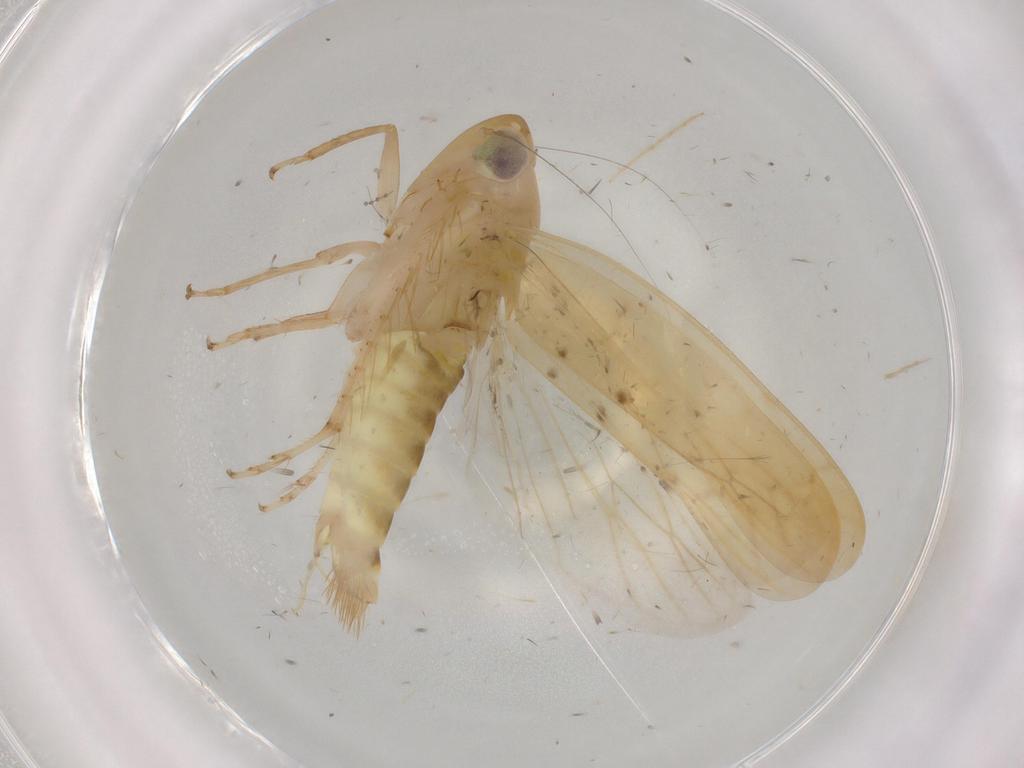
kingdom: Animalia
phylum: Arthropoda
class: Insecta
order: Hemiptera
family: Cicadellidae
